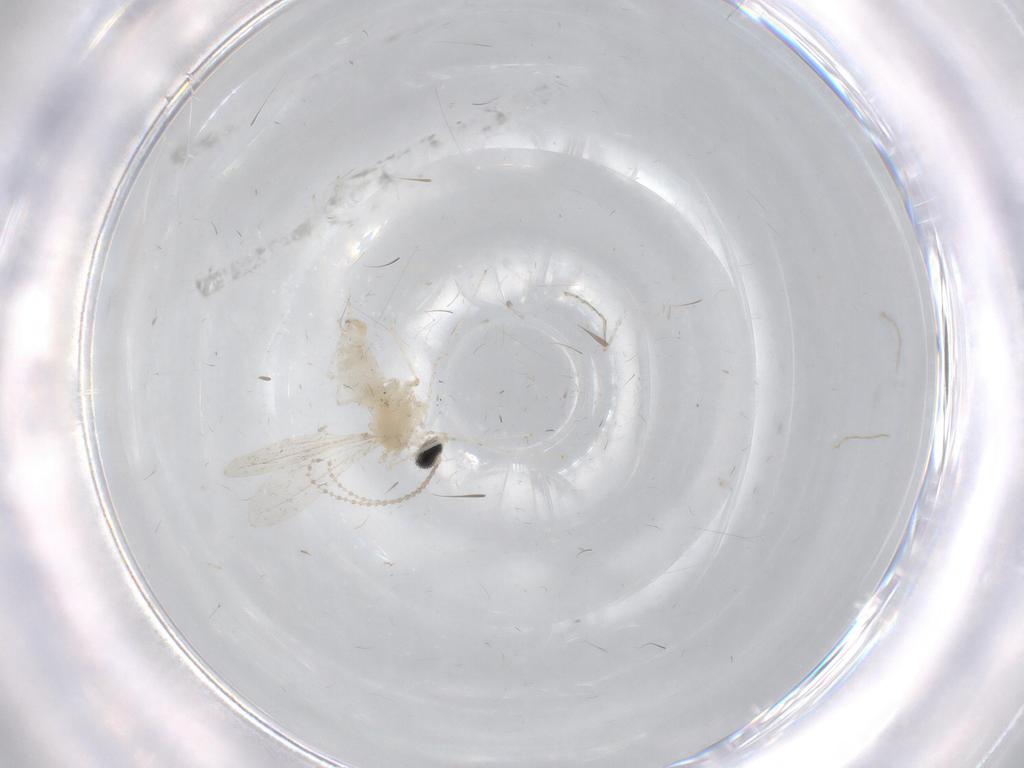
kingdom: Animalia
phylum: Arthropoda
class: Insecta
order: Diptera
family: Cecidomyiidae
